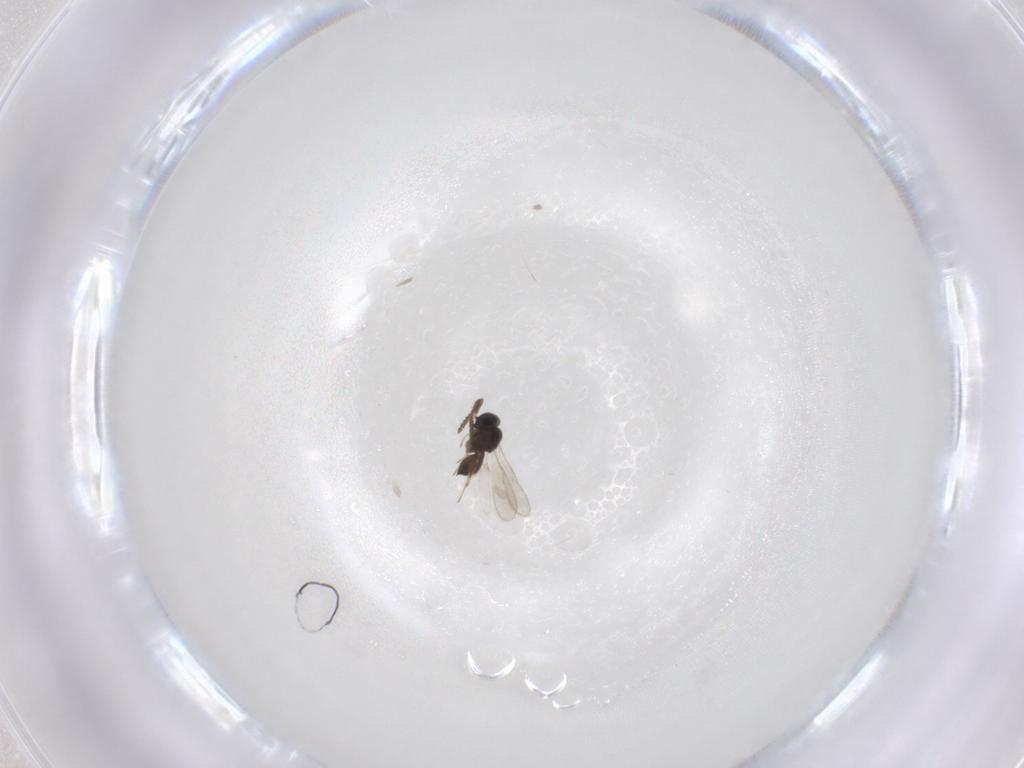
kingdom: Animalia
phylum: Arthropoda
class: Insecta
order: Hymenoptera
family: Scelionidae
